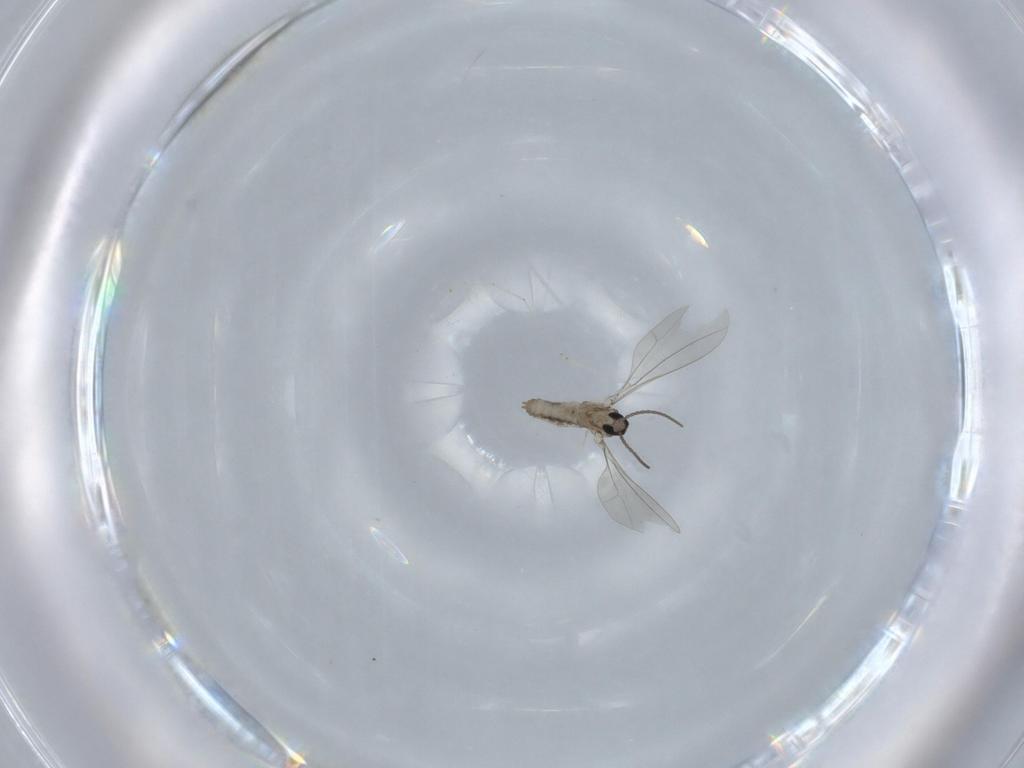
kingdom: Animalia
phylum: Arthropoda
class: Insecta
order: Diptera
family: Cecidomyiidae
